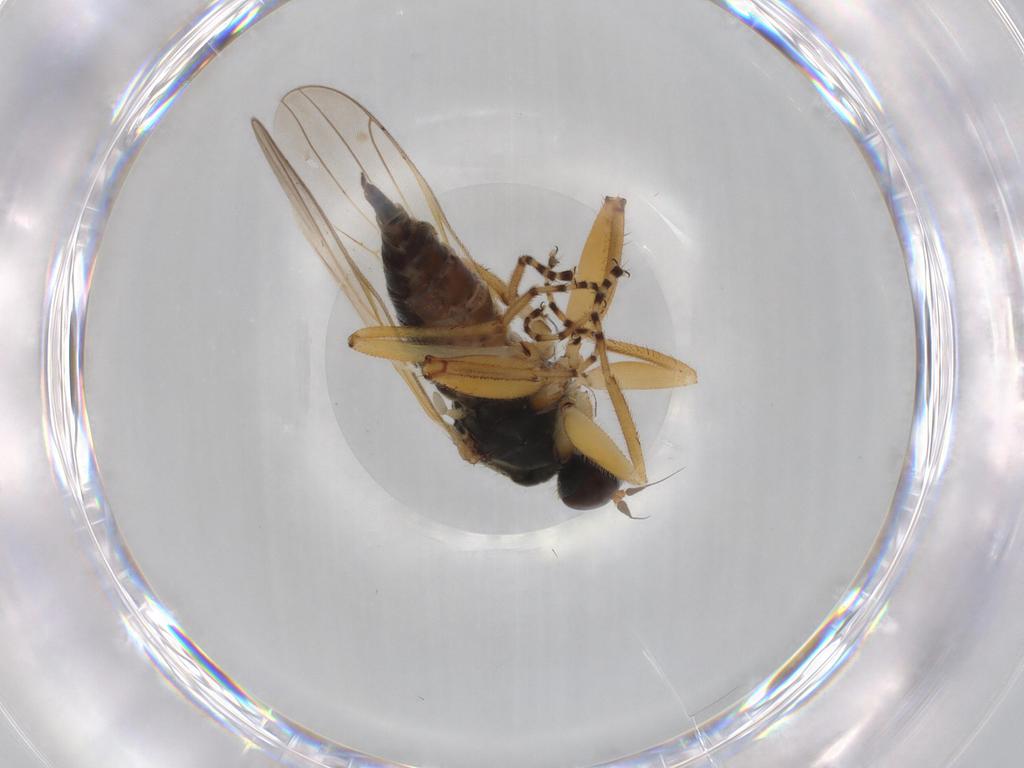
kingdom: Animalia
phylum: Arthropoda
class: Insecta
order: Diptera
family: Hybotidae
